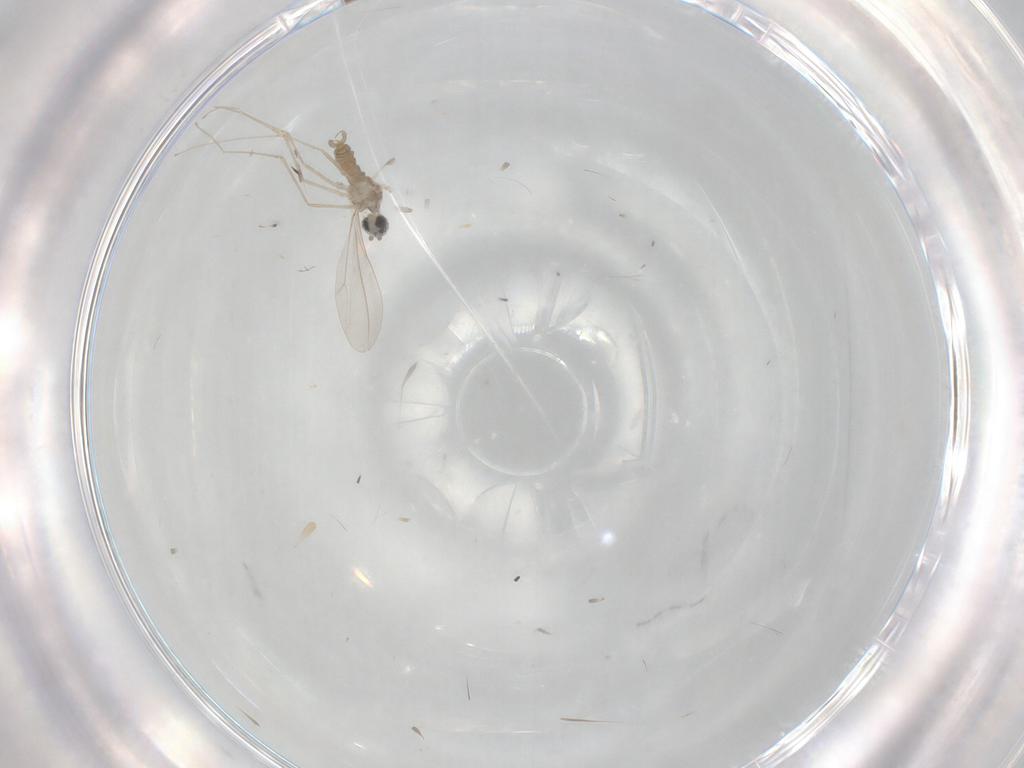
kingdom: Animalia
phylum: Arthropoda
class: Insecta
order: Diptera
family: Cecidomyiidae
